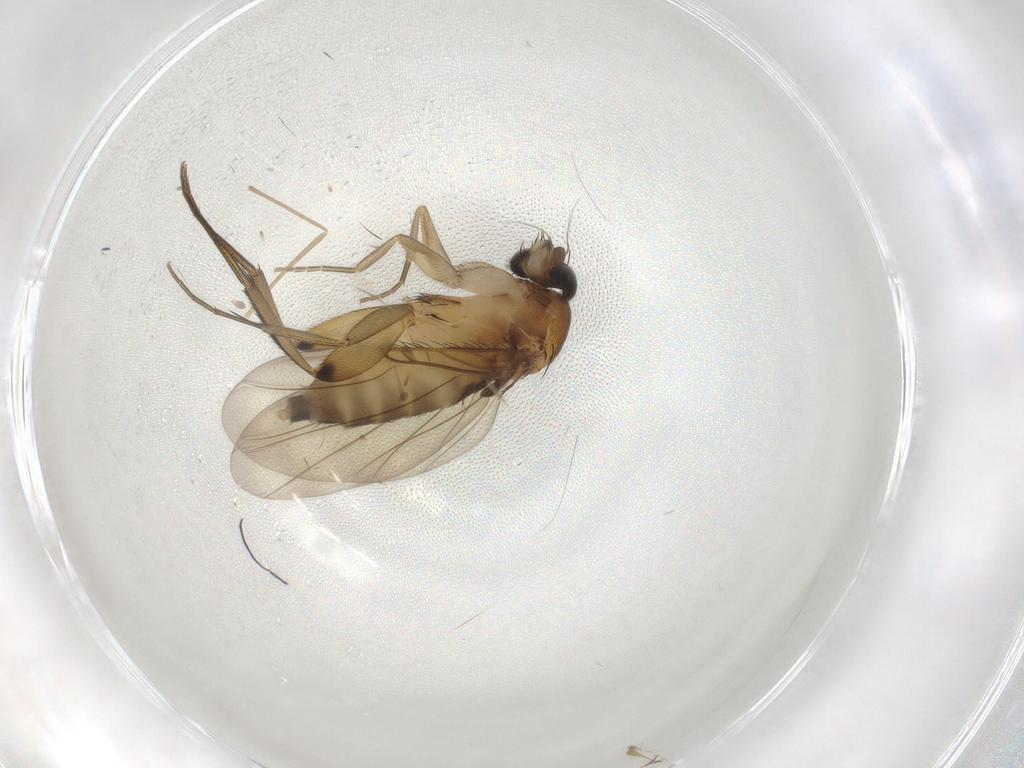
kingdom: Animalia
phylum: Arthropoda
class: Insecta
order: Diptera
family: Phoridae
